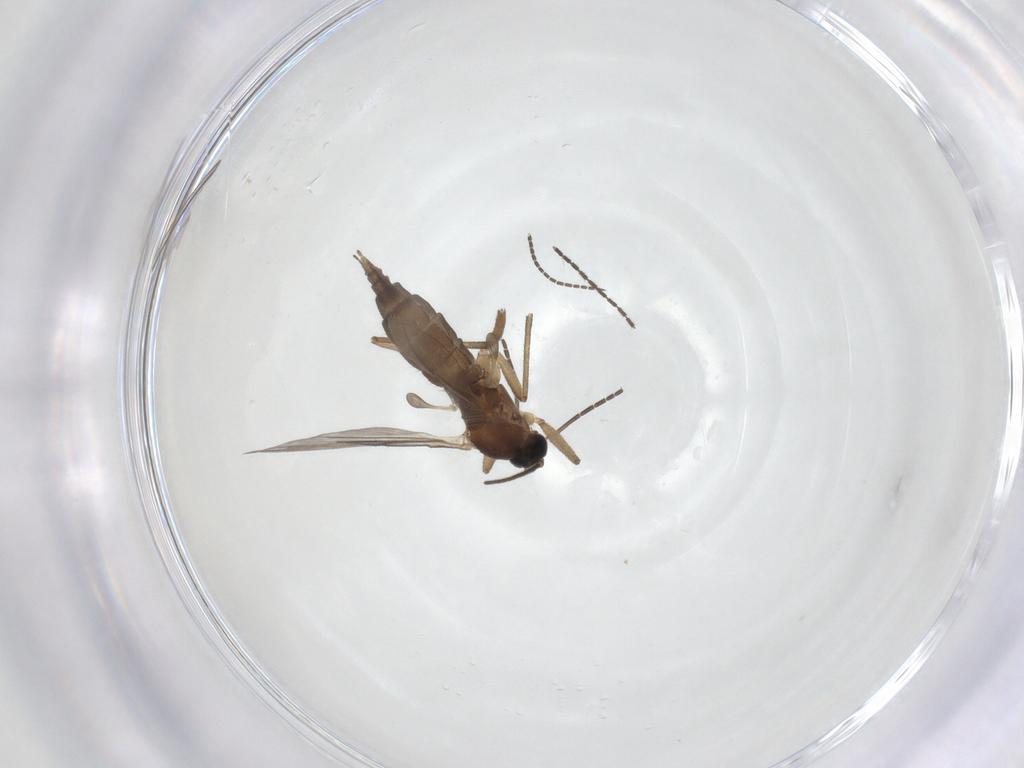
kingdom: Animalia
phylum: Arthropoda
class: Insecta
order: Diptera
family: Sciaridae
